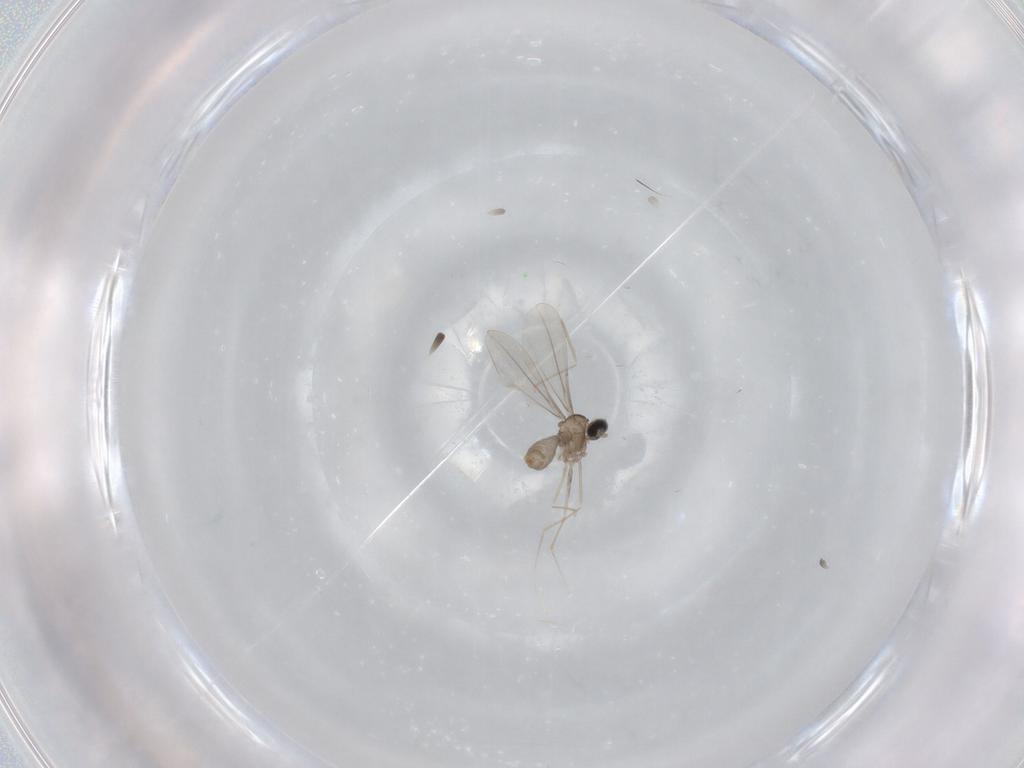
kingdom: Animalia
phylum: Arthropoda
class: Insecta
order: Diptera
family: Cecidomyiidae
